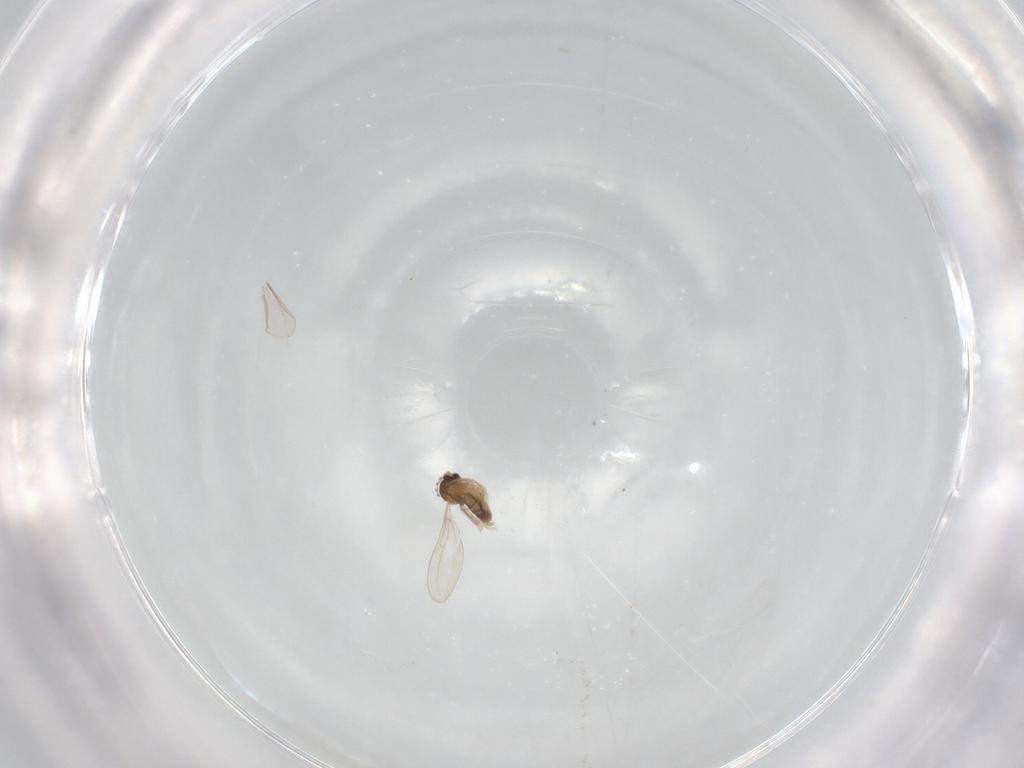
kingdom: Animalia
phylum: Arthropoda
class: Insecta
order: Diptera
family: Cecidomyiidae
